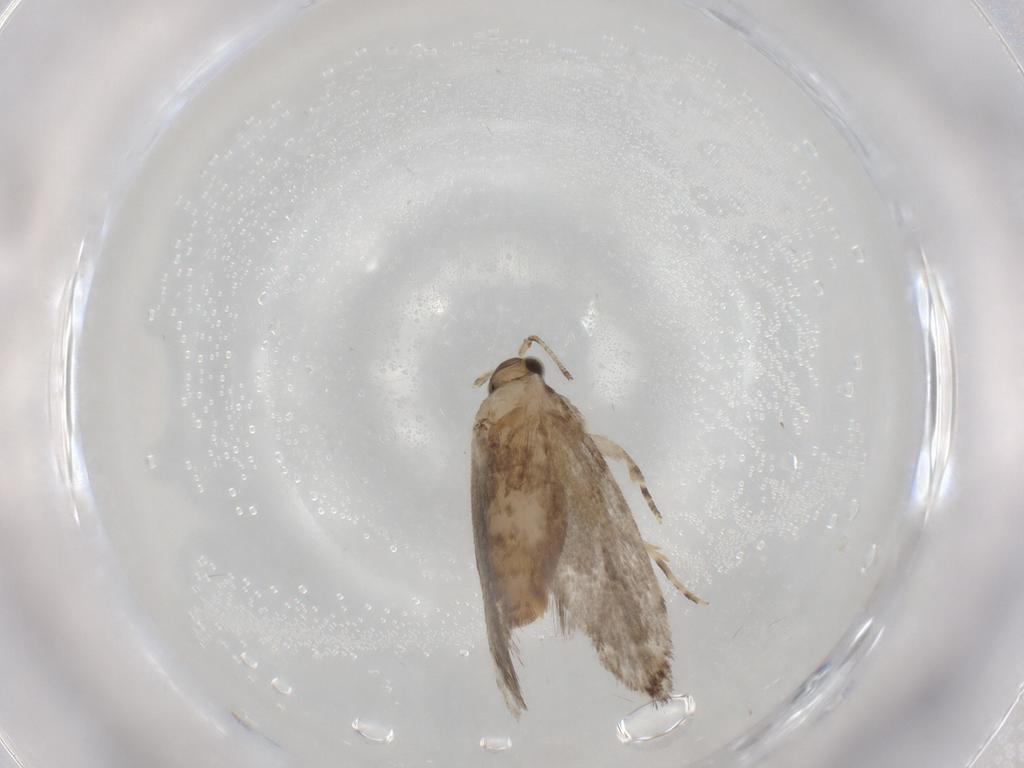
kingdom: Animalia
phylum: Arthropoda
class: Insecta
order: Lepidoptera
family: Tineidae
